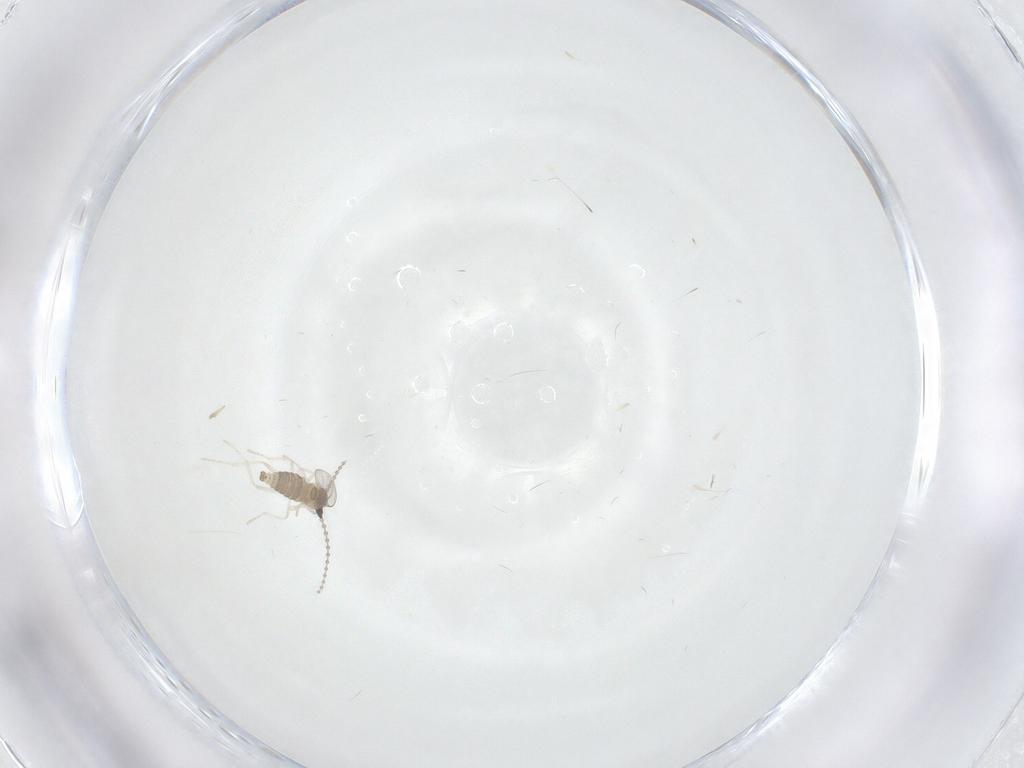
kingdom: Animalia
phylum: Arthropoda
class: Insecta
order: Diptera
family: Cecidomyiidae
